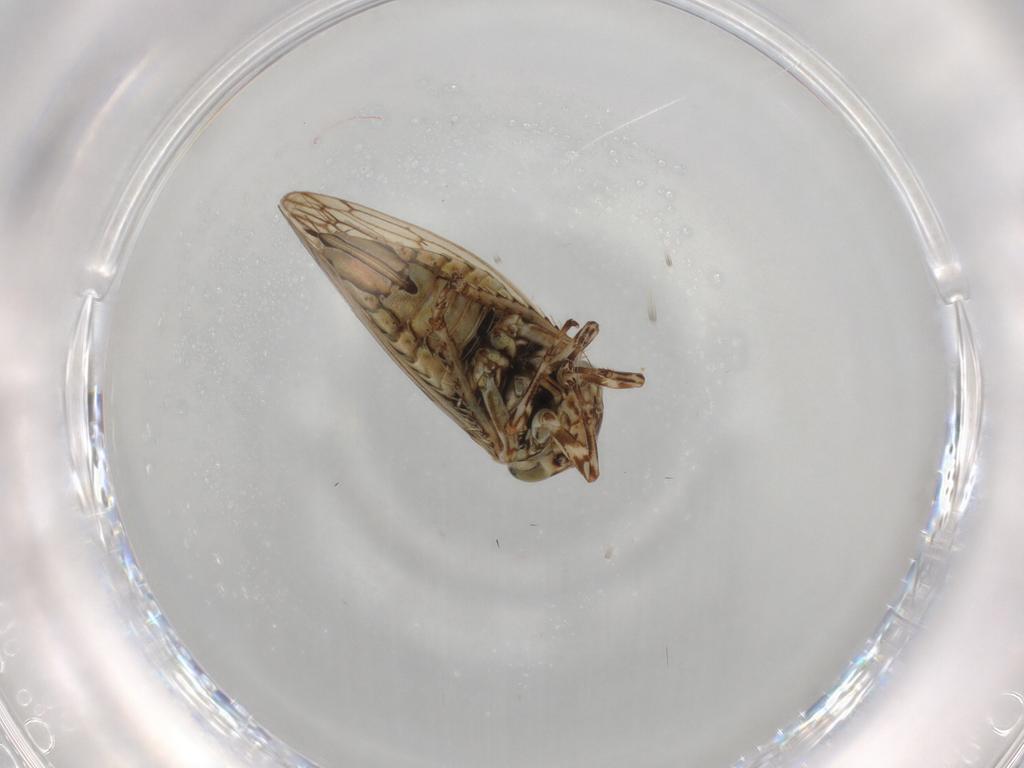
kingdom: Animalia
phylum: Arthropoda
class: Insecta
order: Hemiptera
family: Cicadellidae
